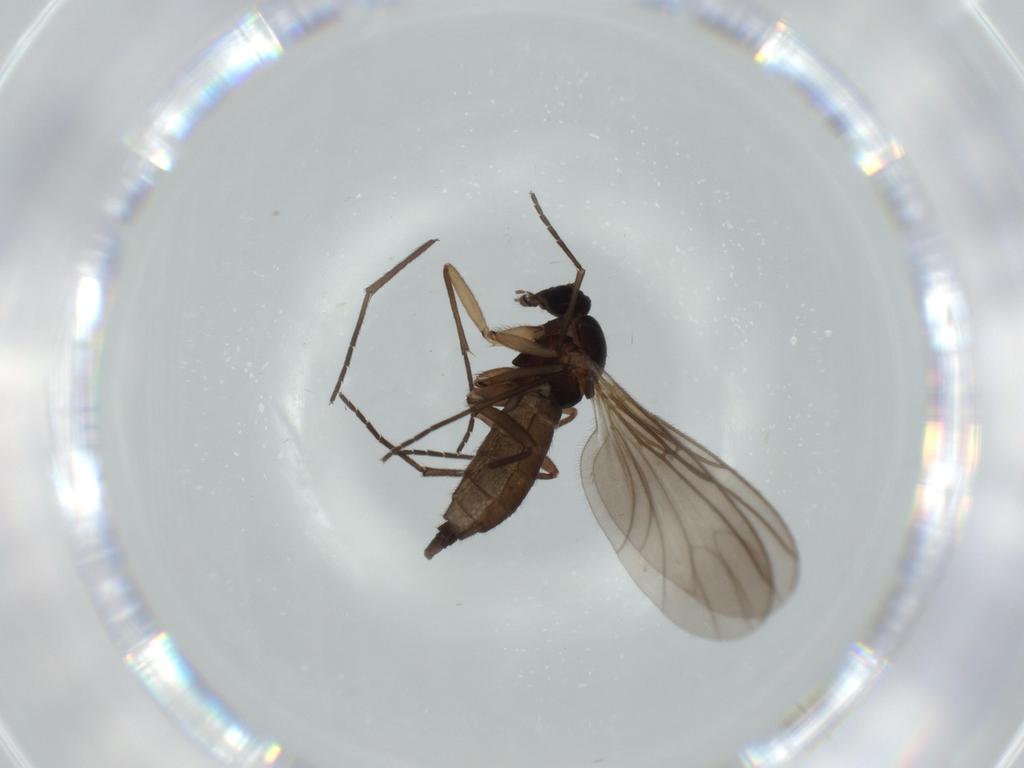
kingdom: Animalia
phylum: Arthropoda
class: Insecta
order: Diptera
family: Sciaridae
